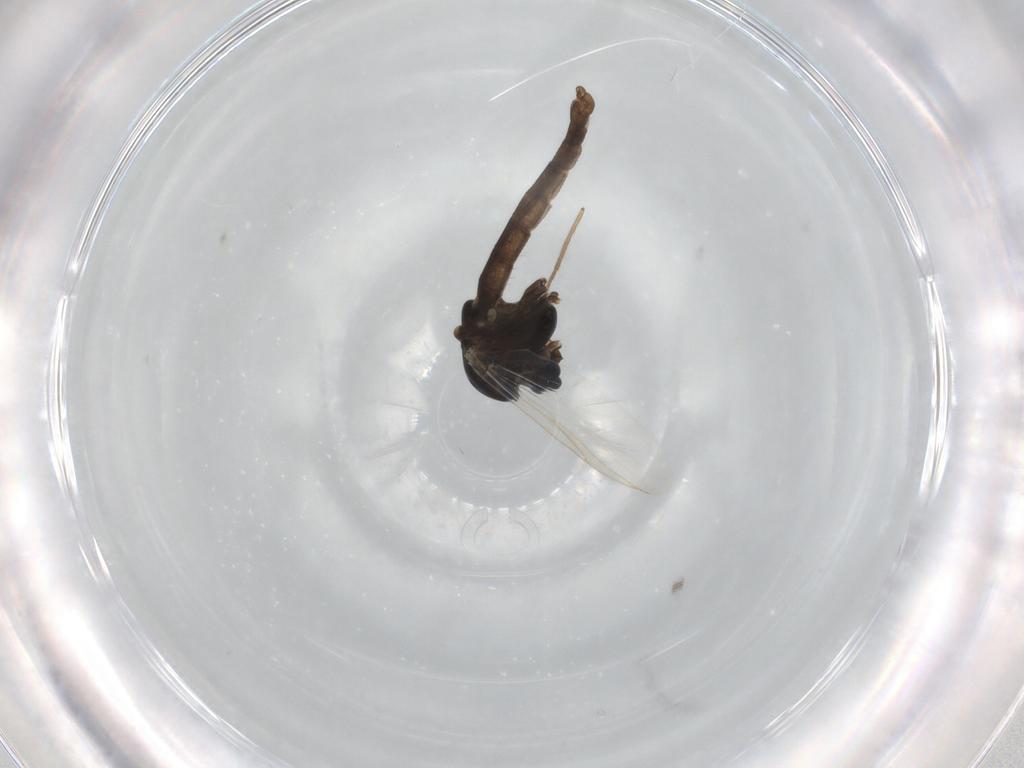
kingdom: Animalia
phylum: Arthropoda
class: Insecta
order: Diptera
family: Chironomidae
